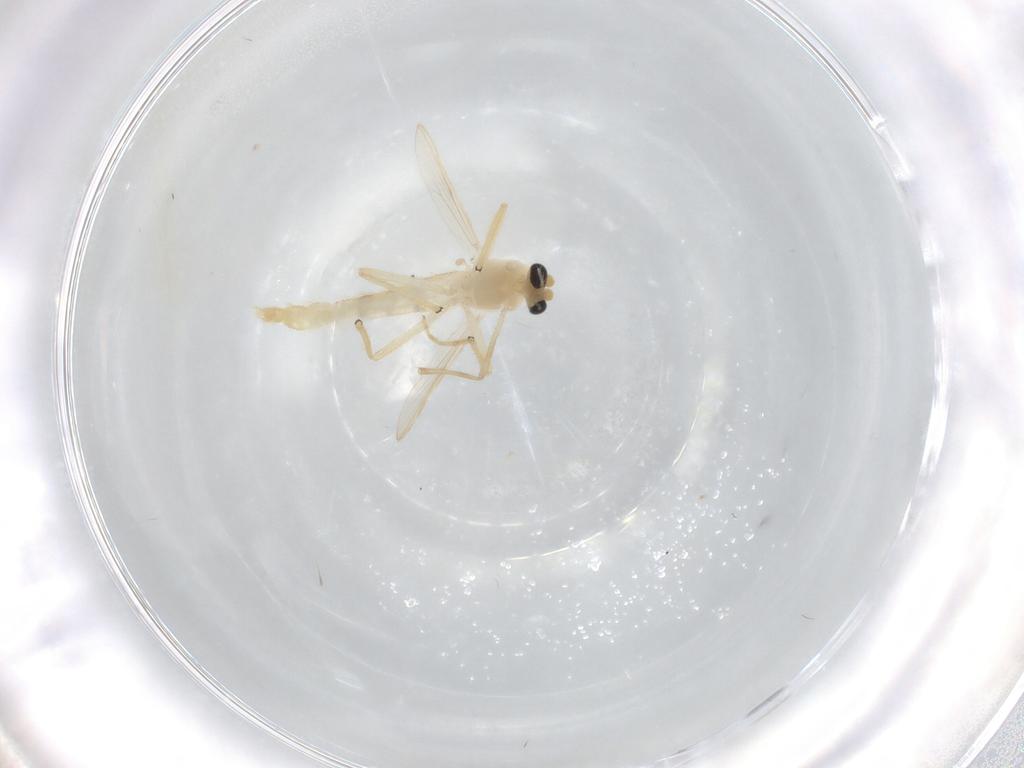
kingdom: Animalia
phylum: Arthropoda
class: Insecta
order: Diptera
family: Chironomidae
